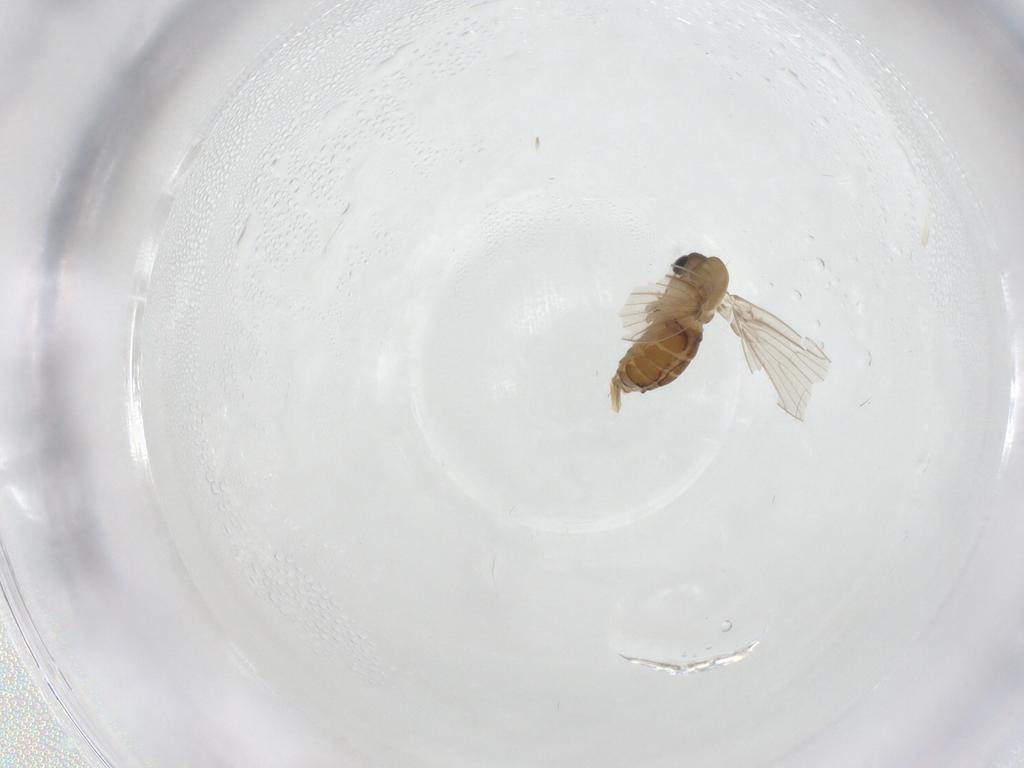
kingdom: Animalia
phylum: Arthropoda
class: Insecta
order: Diptera
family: Psychodidae
